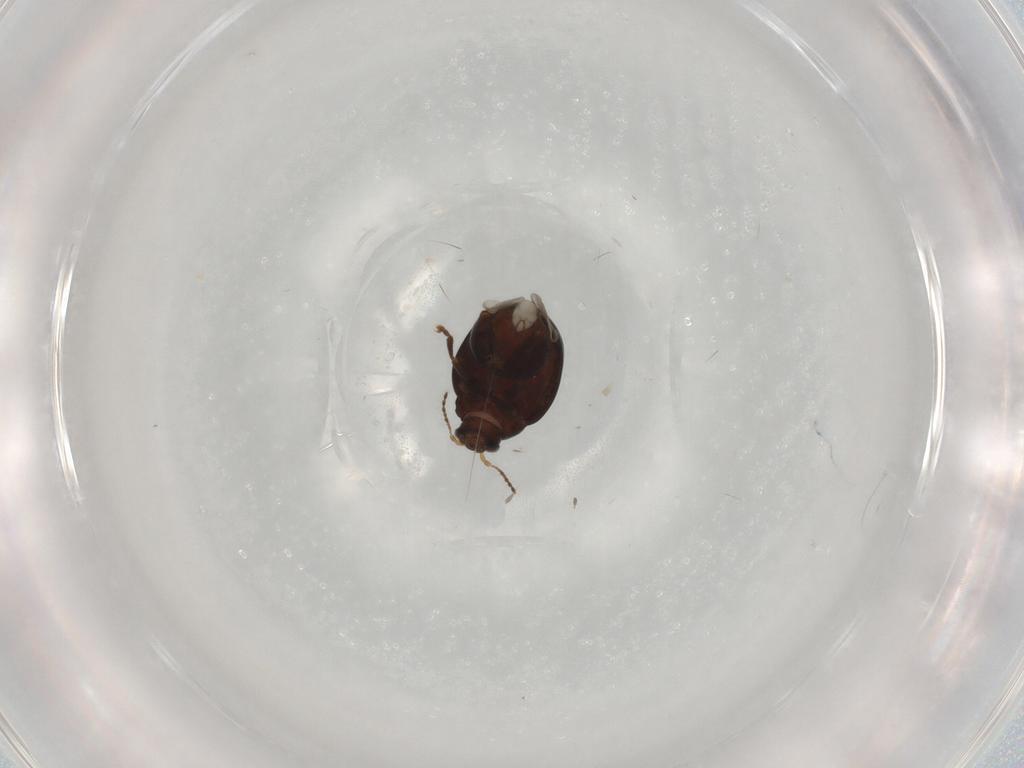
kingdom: Animalia
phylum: Arthropoda
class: Insecta
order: Coleoptera
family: Chrysomelidae
